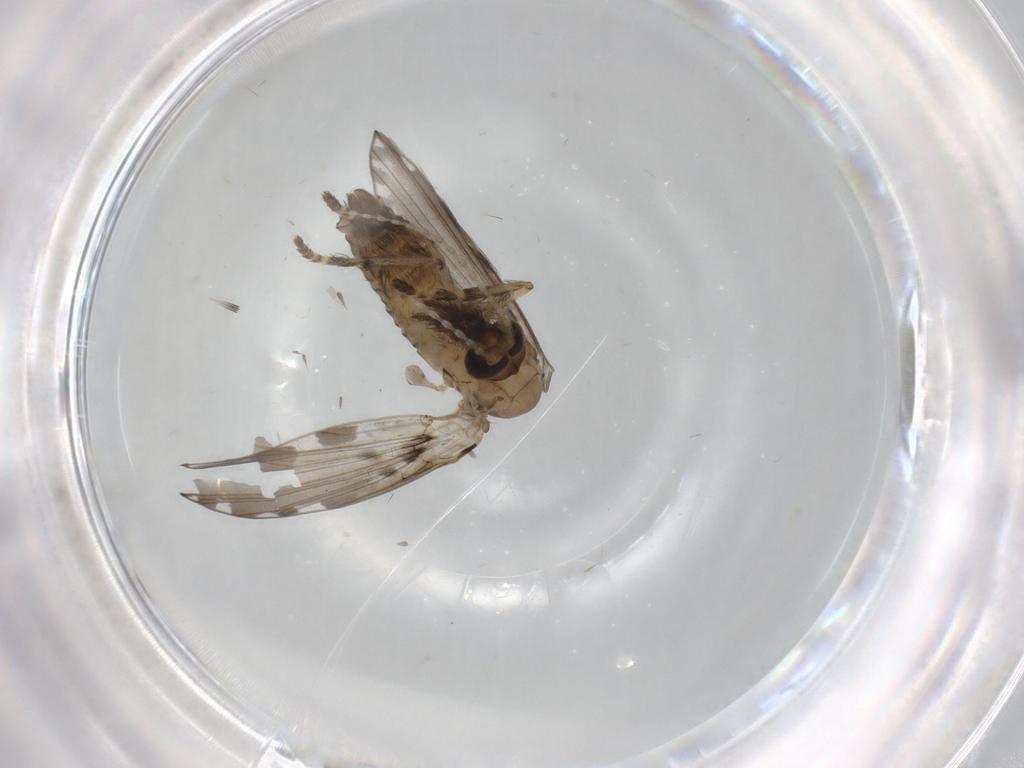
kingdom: Animalia
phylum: Arthropoda
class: Insecta
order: Diptera
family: Psychodidae
